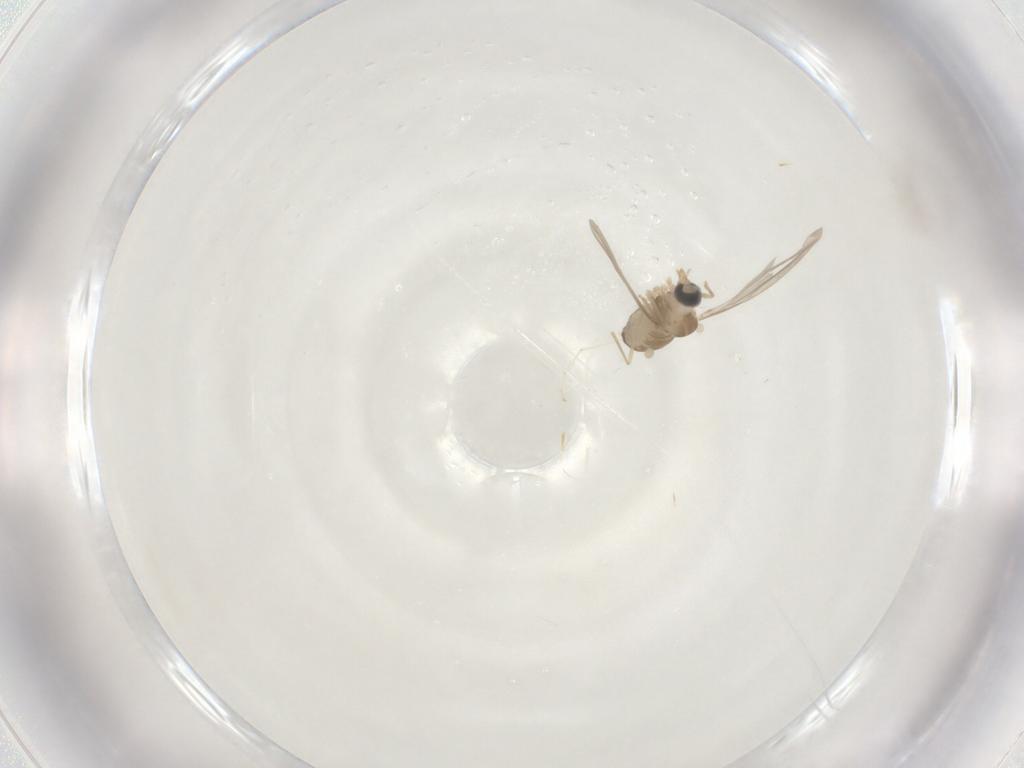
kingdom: Animalia
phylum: Arthropoda
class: Insecta
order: Diptera
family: Cecidomyiidae
